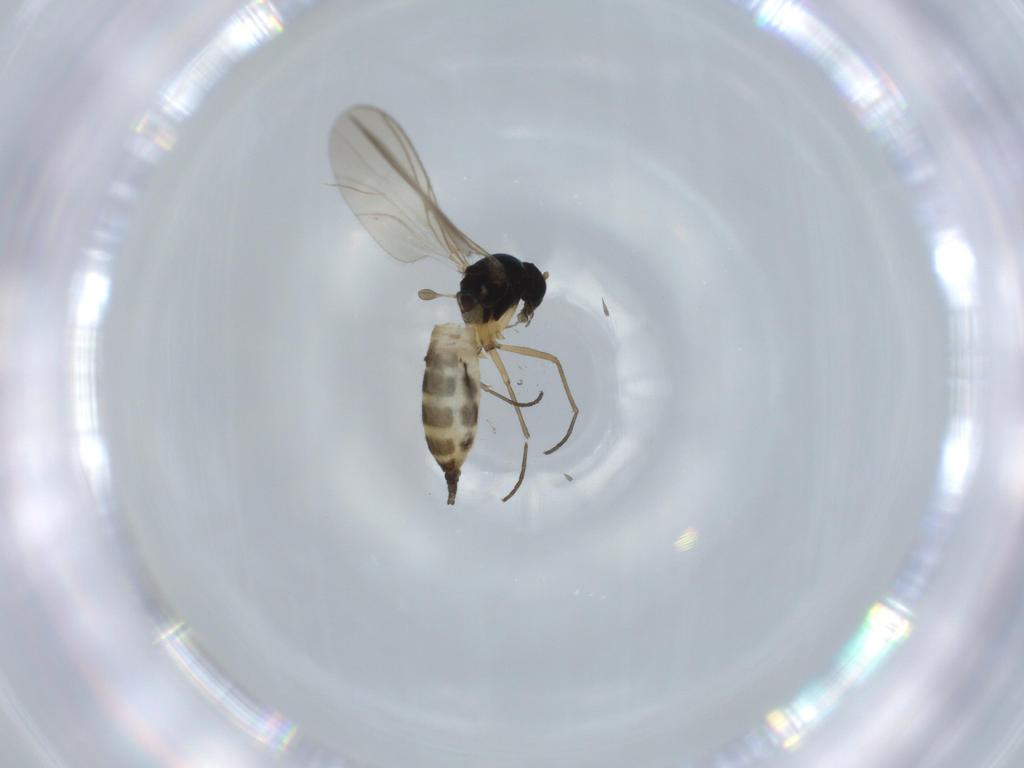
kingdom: Animalia
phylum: Arthropoda
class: Insecta
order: Diptera
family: Sciaridae
